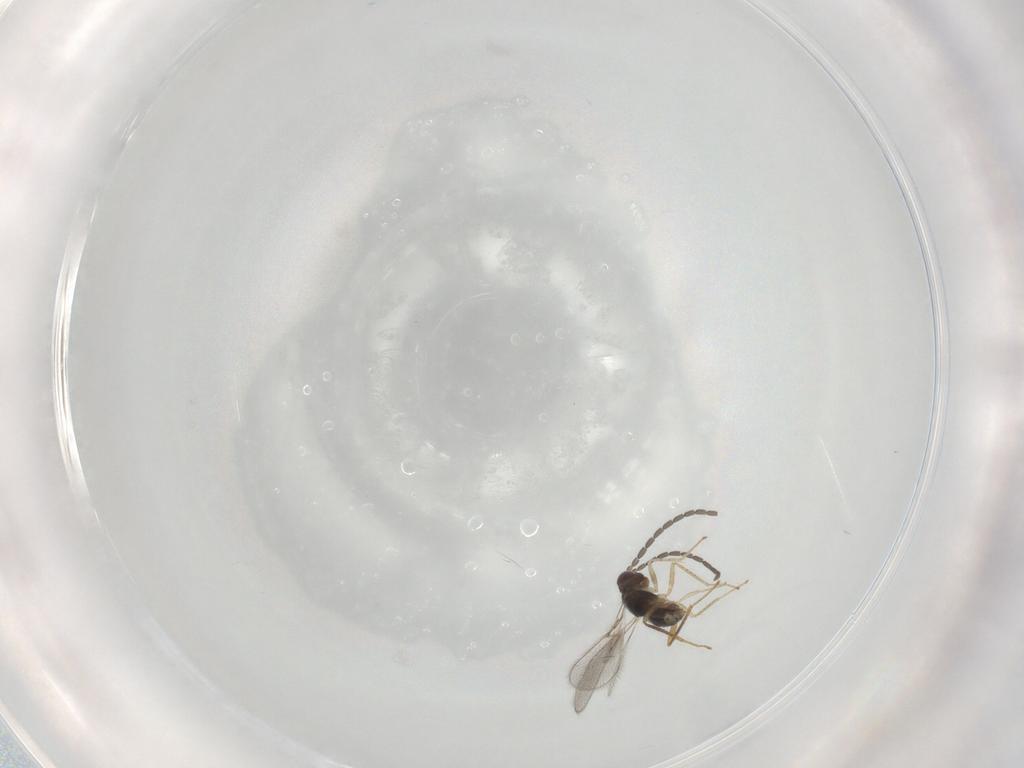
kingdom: Animalia
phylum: Arthropoda
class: Insecta
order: Hymenoptera
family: Mymaridae
